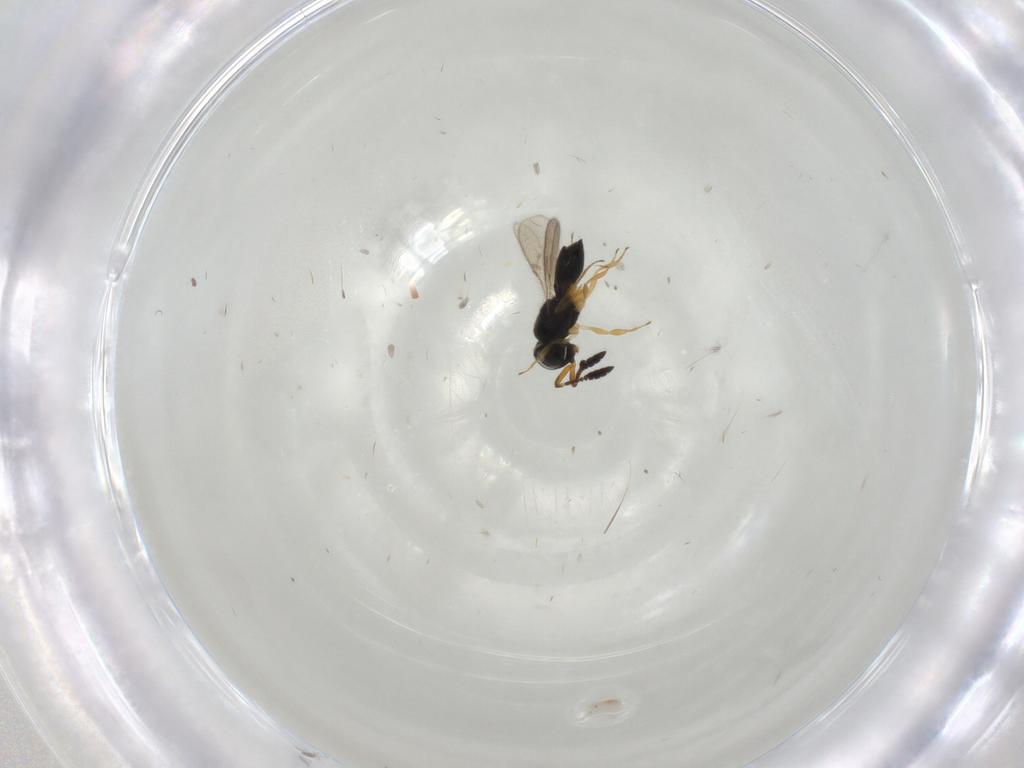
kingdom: Animalia
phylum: Arthropoda
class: Insecta
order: Hymenoptera
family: Scelionidae
